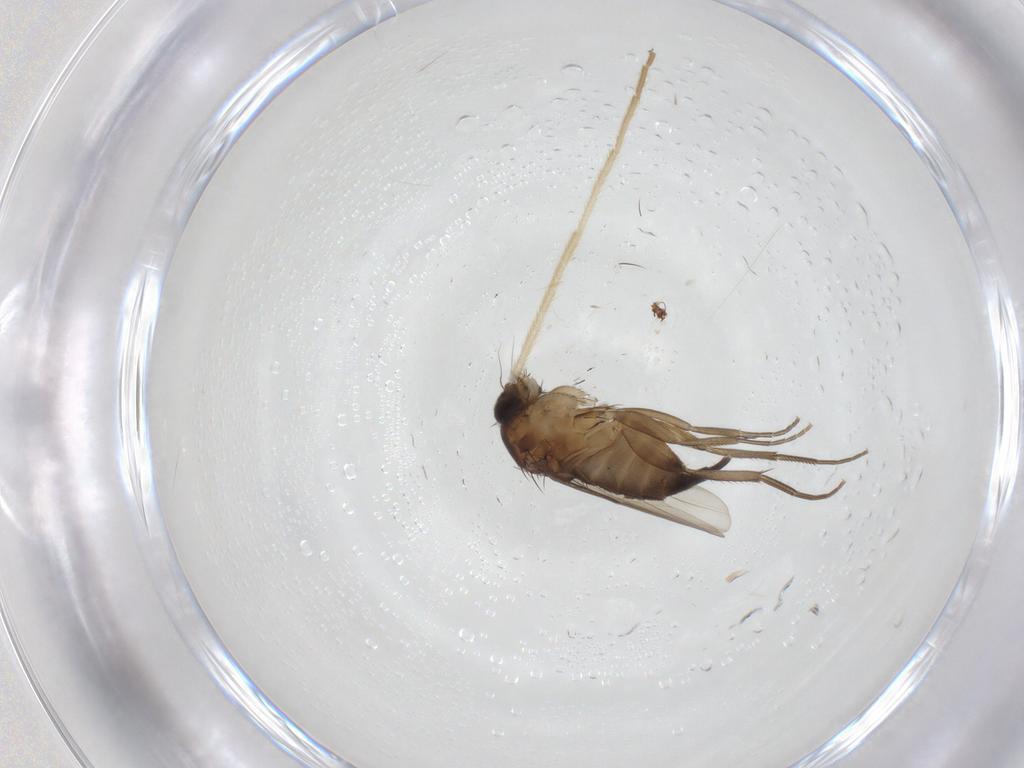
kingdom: Animalia
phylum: Arthropoda
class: Insecta
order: Diptera
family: Phoridae
